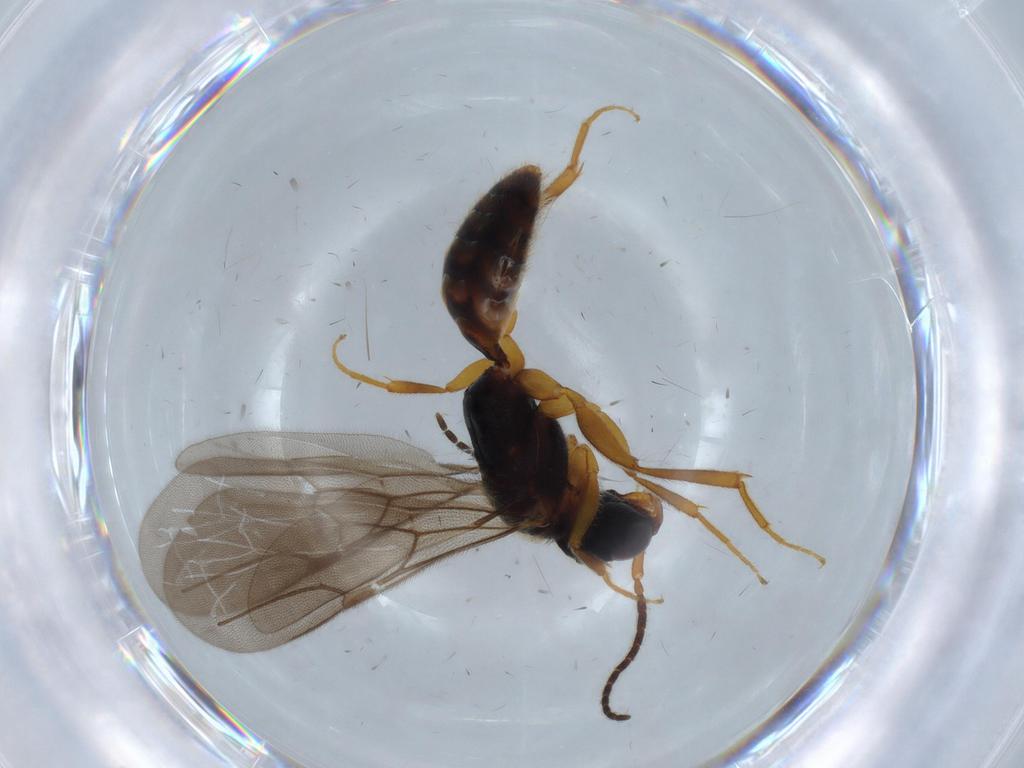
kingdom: Animalia
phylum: Arthropoda
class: Insecta
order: Hymenoptera
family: Bethylidae
